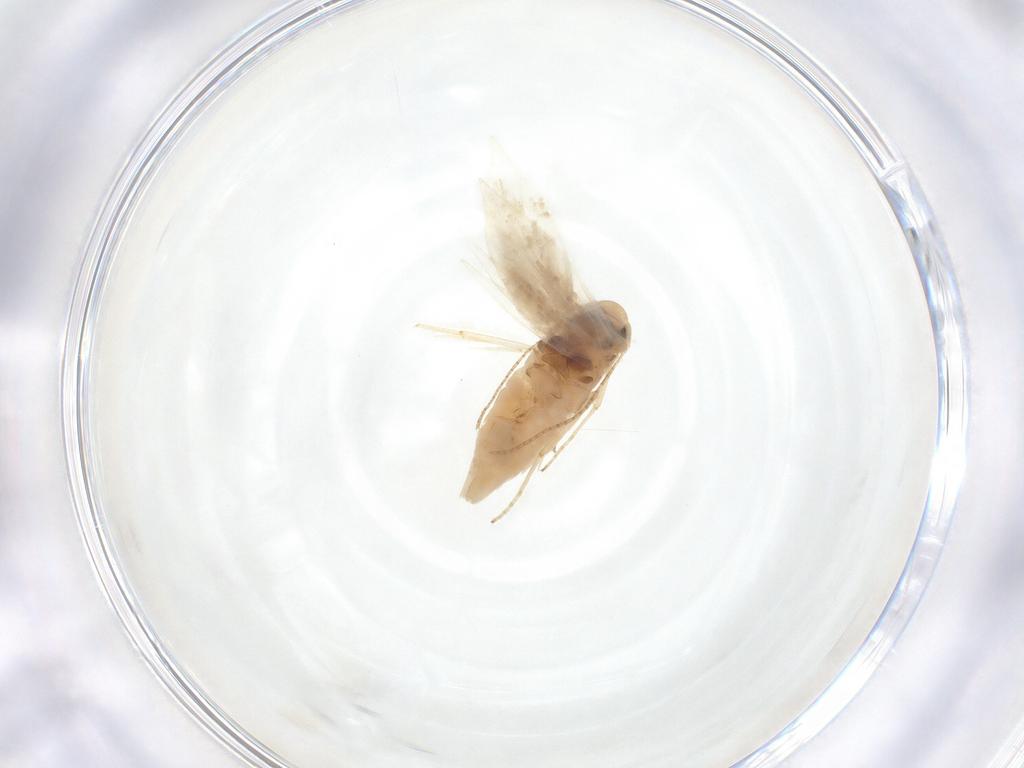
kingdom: Animalia
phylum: Arthropoda
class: Insecta
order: Lepidoptera
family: Lyonetiidae
